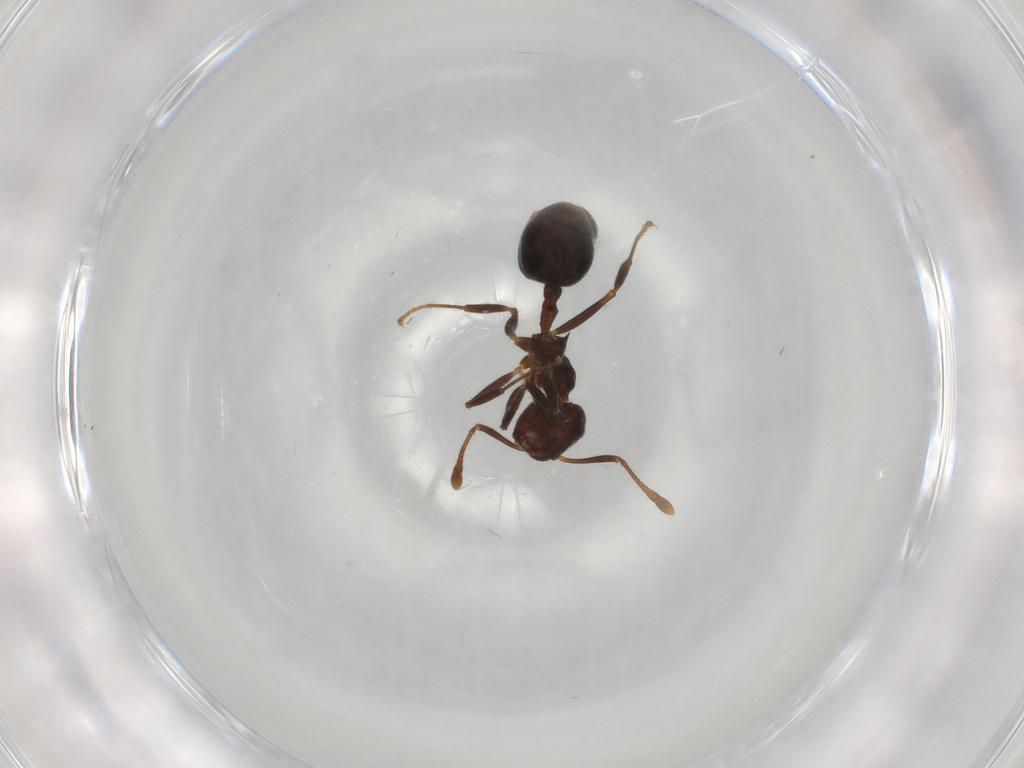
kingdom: Animalia
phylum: Arthropoda
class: Insecta
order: Hymenoptera
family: Formicidae
